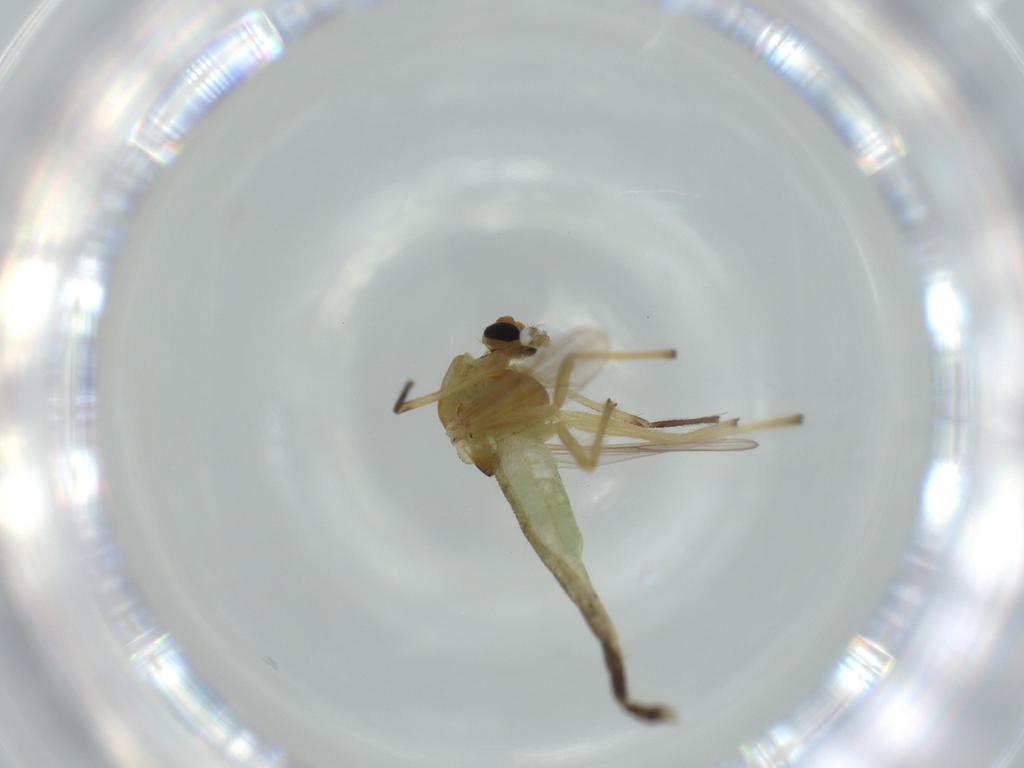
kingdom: Animalia
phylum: Arthropoda
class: Insecta
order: Diptera
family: Chironomidae
